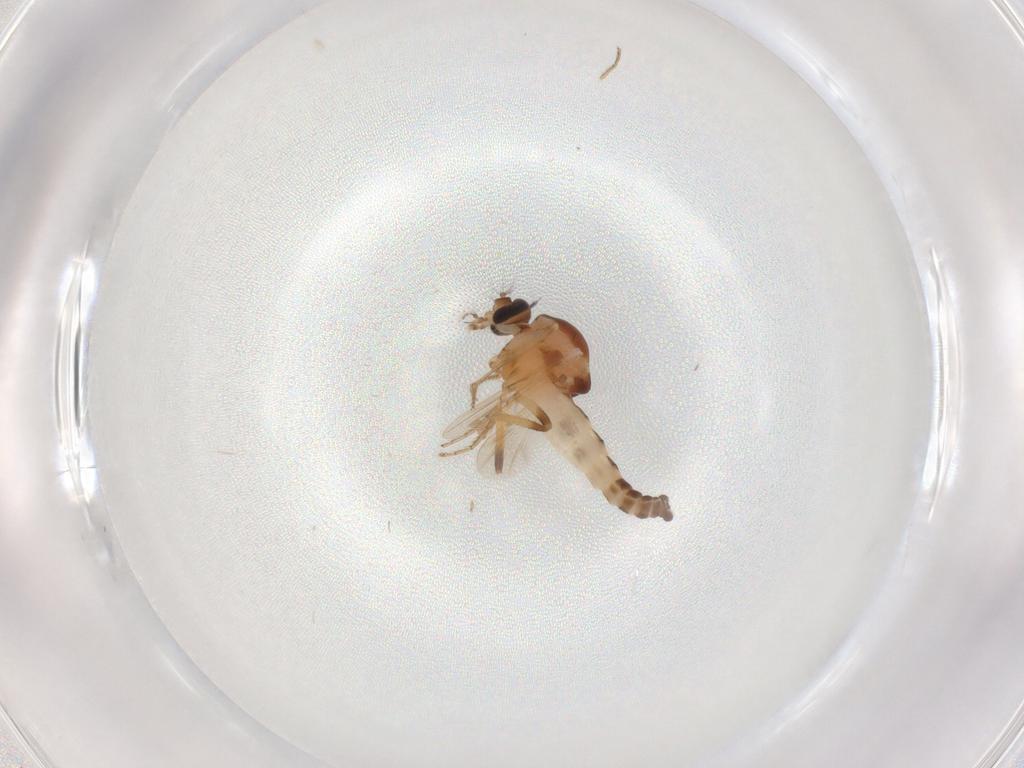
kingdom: Animalia
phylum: Arthropoda
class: Insecta
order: Diptera
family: Ceratopogonidae
